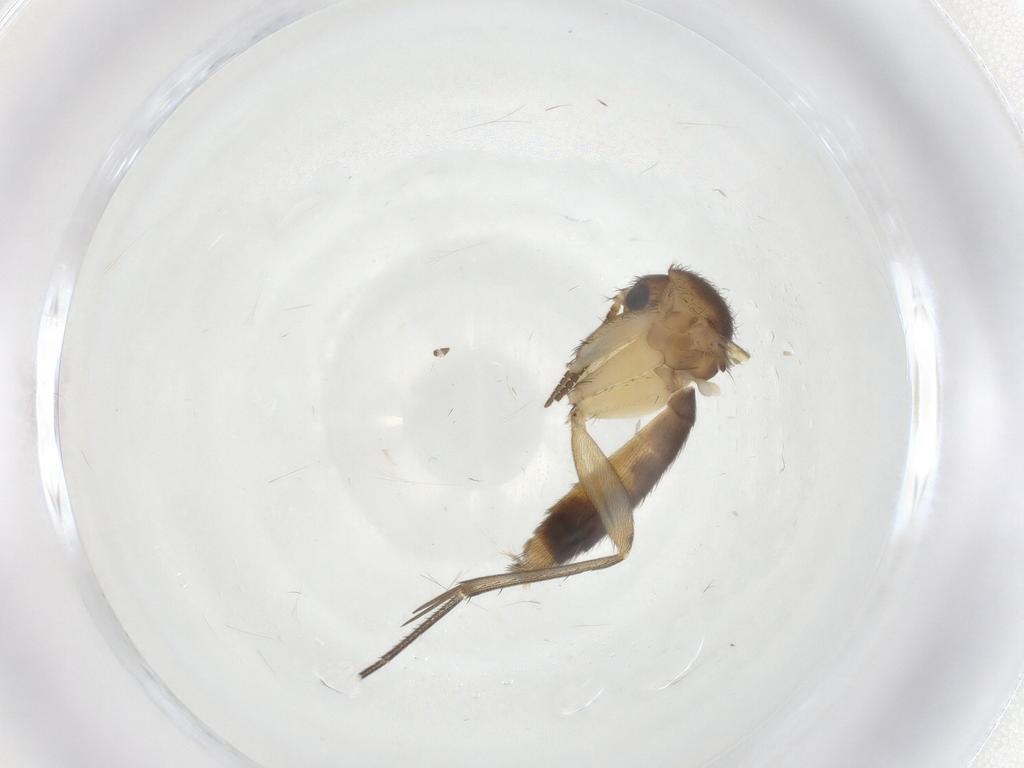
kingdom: Animalia
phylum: Arthropoda
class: Insecta
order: Diptera
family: Mycetophilidae
